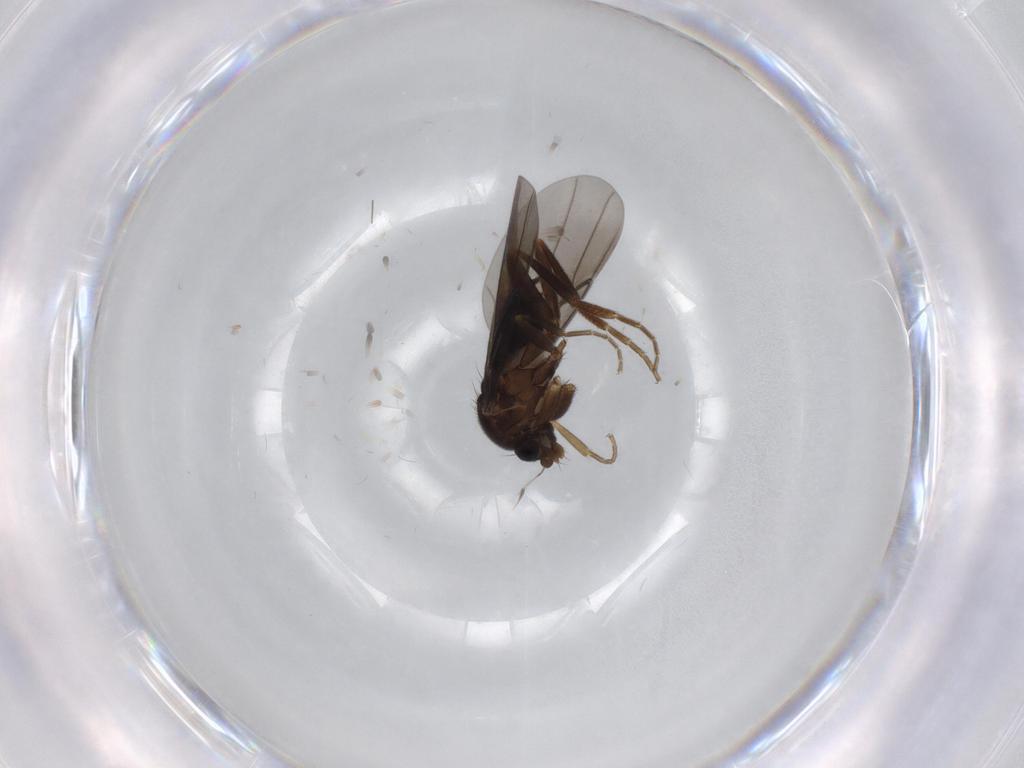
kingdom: Animalia
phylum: Arthropoda
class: Insecta
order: Diptera
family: Phoridae
